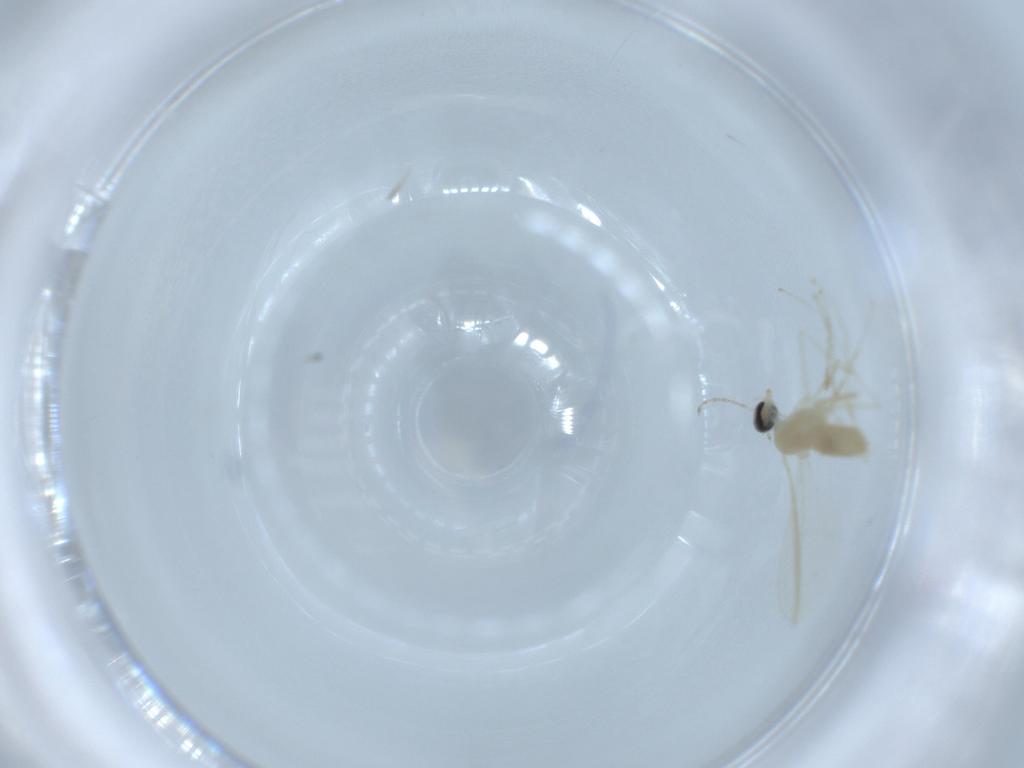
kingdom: Animalia
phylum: Arthropoda
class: Insecta
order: Diptera
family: Cecidomyiidae
